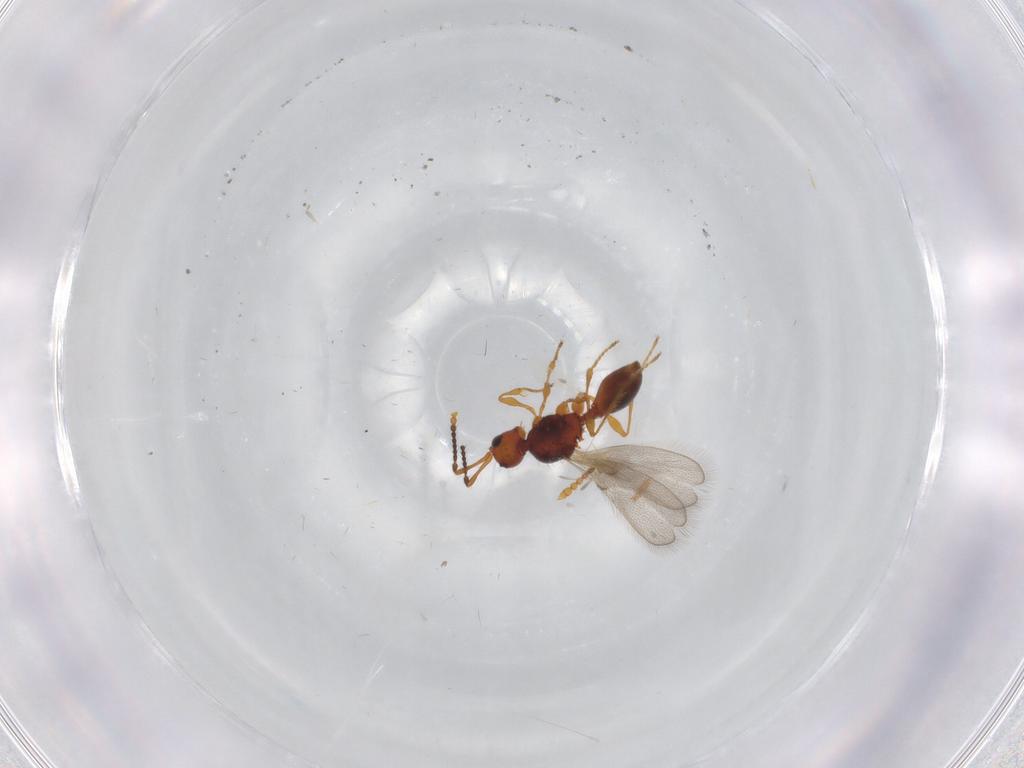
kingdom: Animalia
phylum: Arthropoda
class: Insecta
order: Hymenoptera
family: Diapriidae
